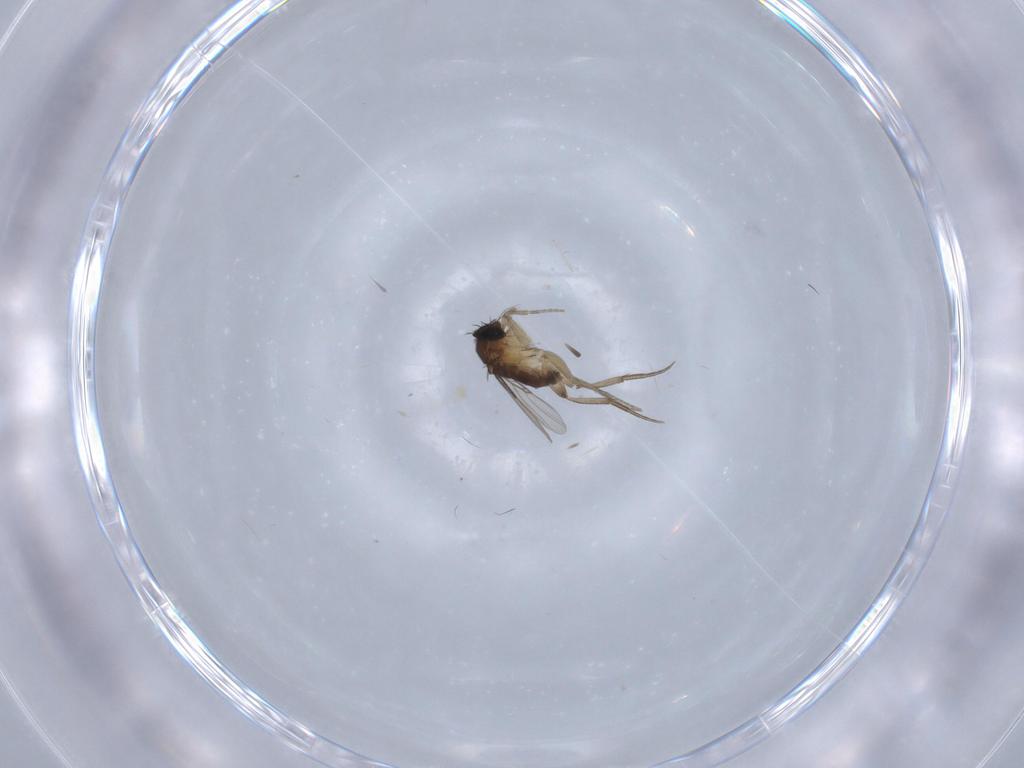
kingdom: Animalia
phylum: Arthropoda
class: Insecta
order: Diptera
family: Phoridae
